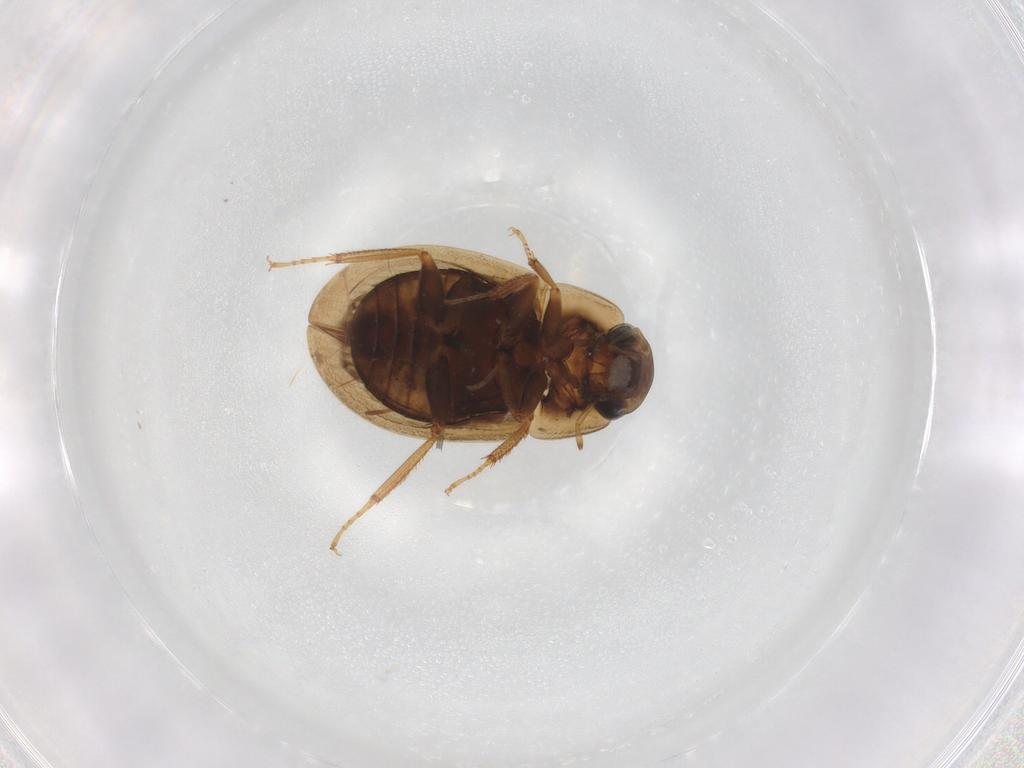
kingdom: Animalia
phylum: Arthropoda
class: Insecta
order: Coleoptera
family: Hydrophilidae
